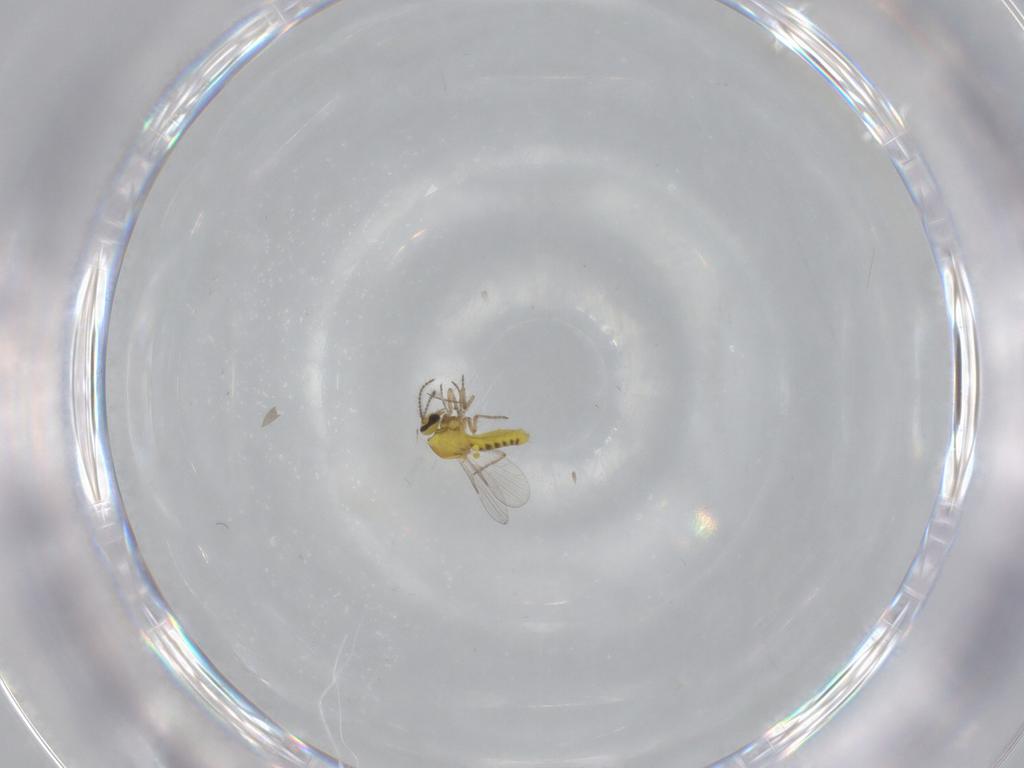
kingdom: Animalia
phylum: Arthropoda
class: Insecta
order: Diptera
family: Ceratopogonidae
